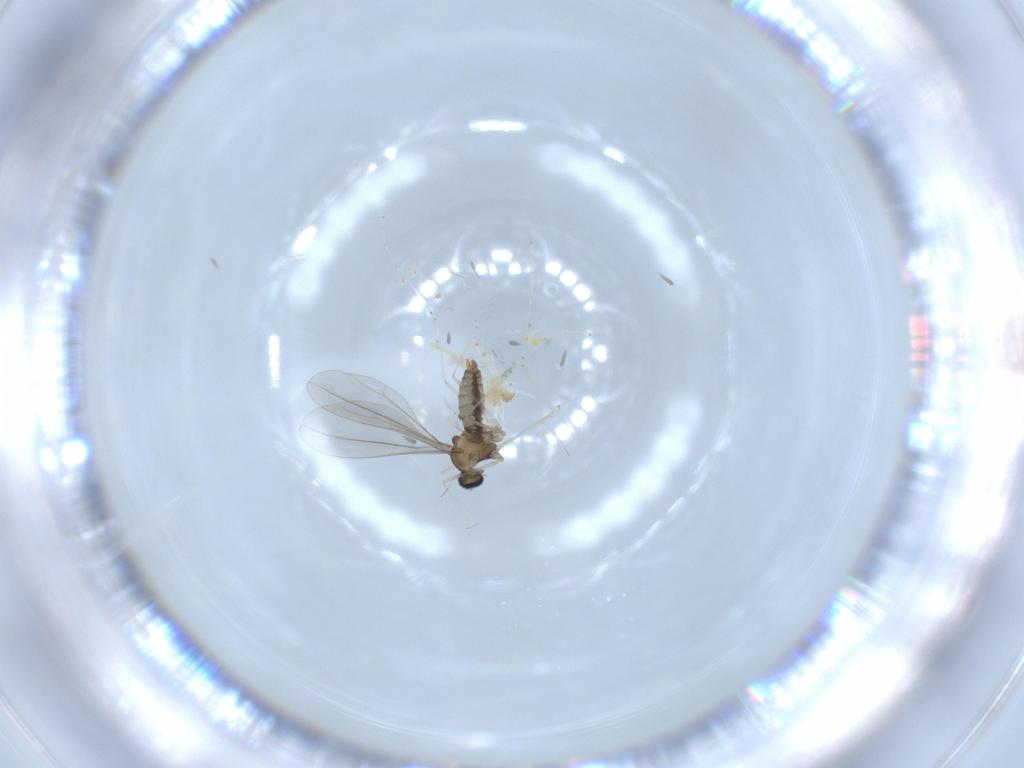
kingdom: Animalia
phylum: Arthropoda
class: Insecta
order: Diptera
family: Cecidomyiidae
